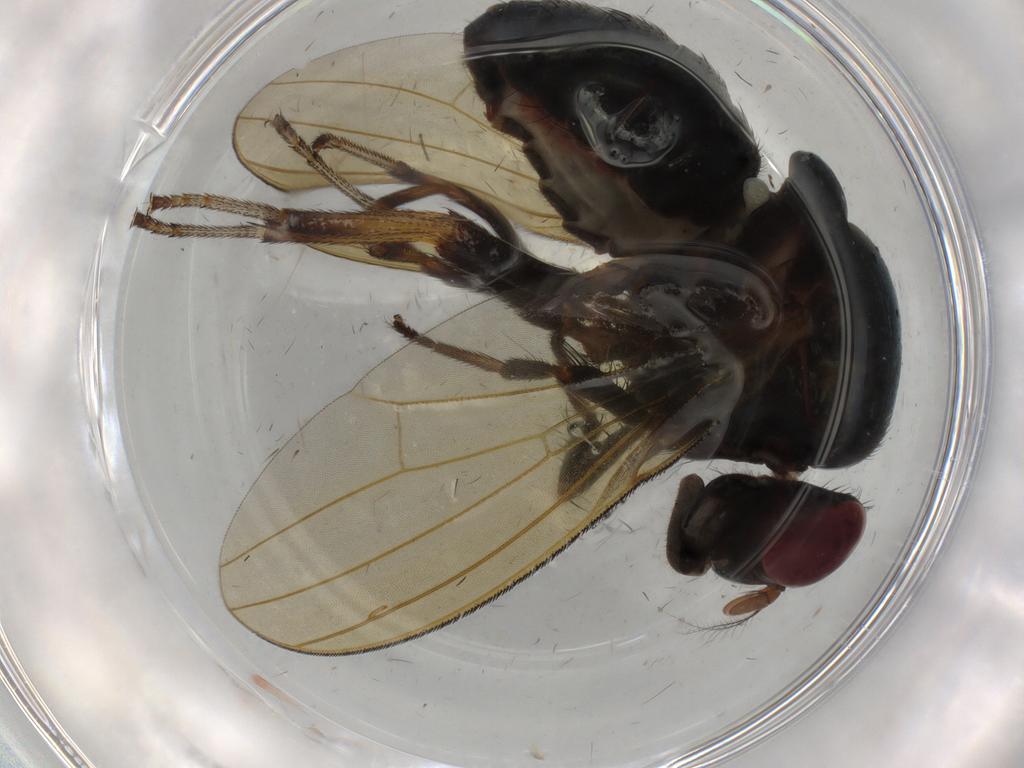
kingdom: Animalia
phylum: Arthropoda
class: Insecta
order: Diptera
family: Lauxaniidae
